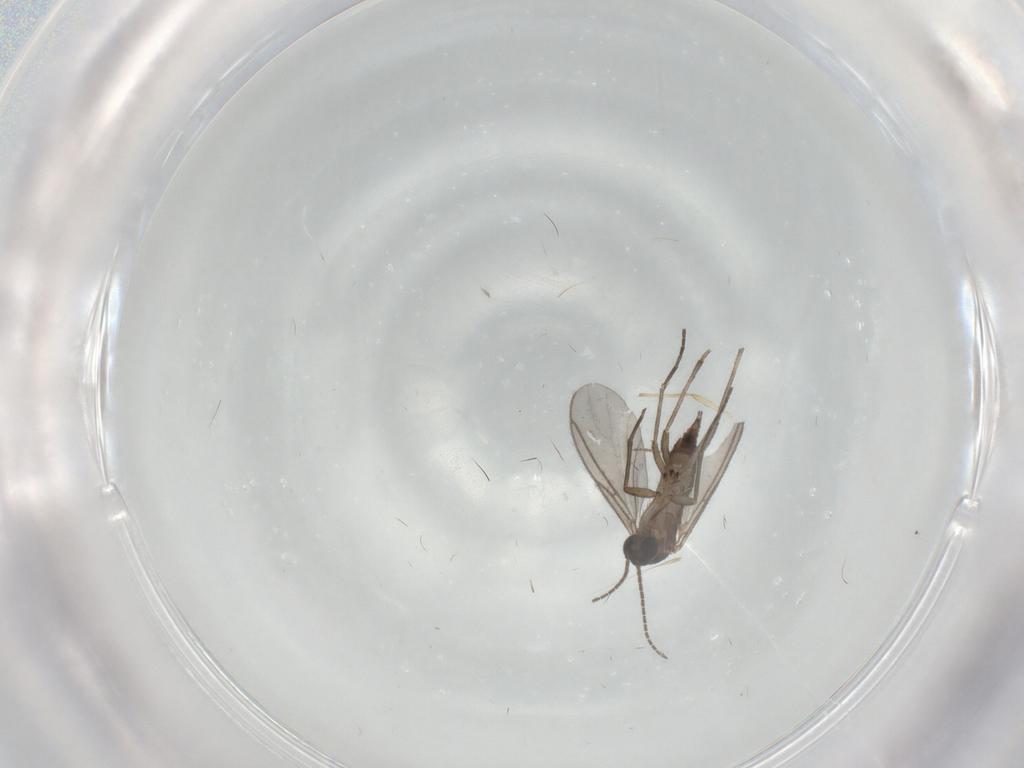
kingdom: Animalia
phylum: Arthropoda
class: Insecta
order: Diptera
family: Sciaridae
